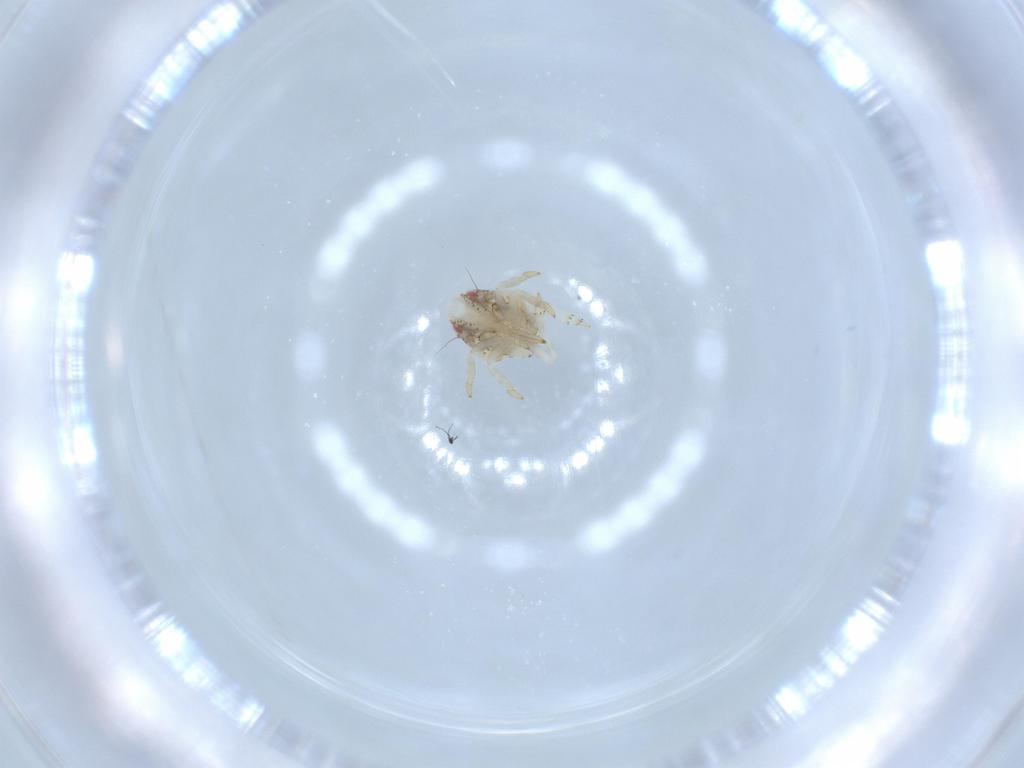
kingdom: Animalia
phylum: Arthropoda
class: Insecta
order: Hemiptera
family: Acanaloniidae
